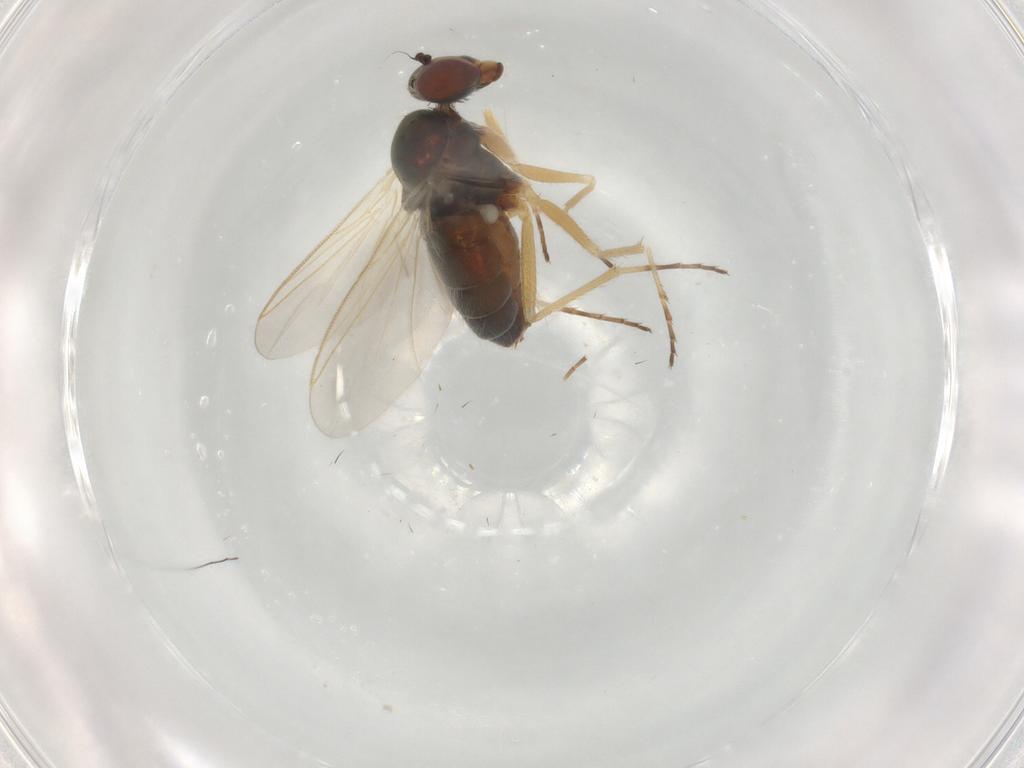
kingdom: Animalia
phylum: Arthropoda
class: Insecta
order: Diptera
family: Dolichopodidae
